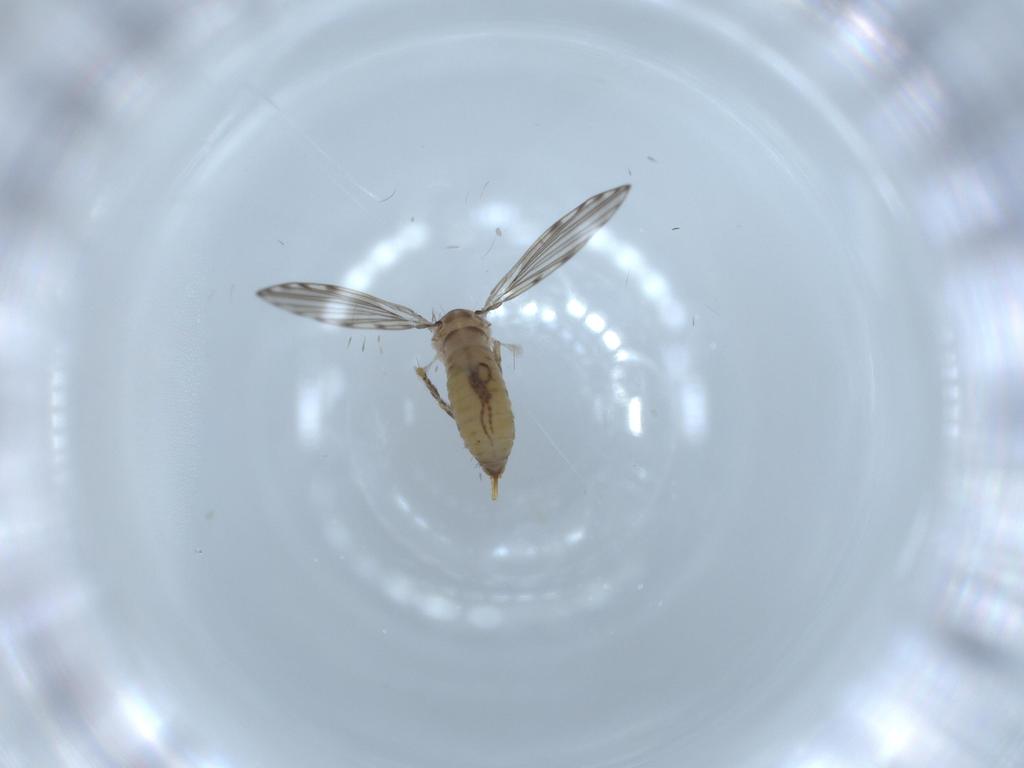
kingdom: Animalia
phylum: Arthropoda
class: Insecta
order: Diptera
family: Psychodidae
